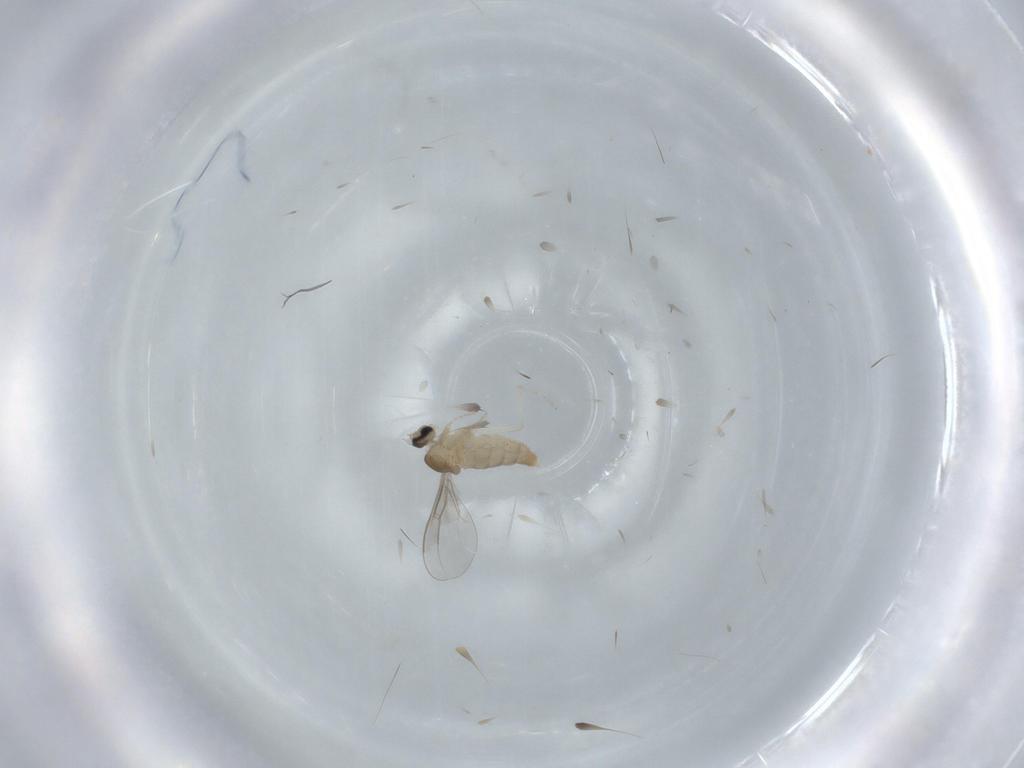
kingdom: Animalia
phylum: Arthropoda
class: Insecta
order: Diptera
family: Cecidomyiidae
